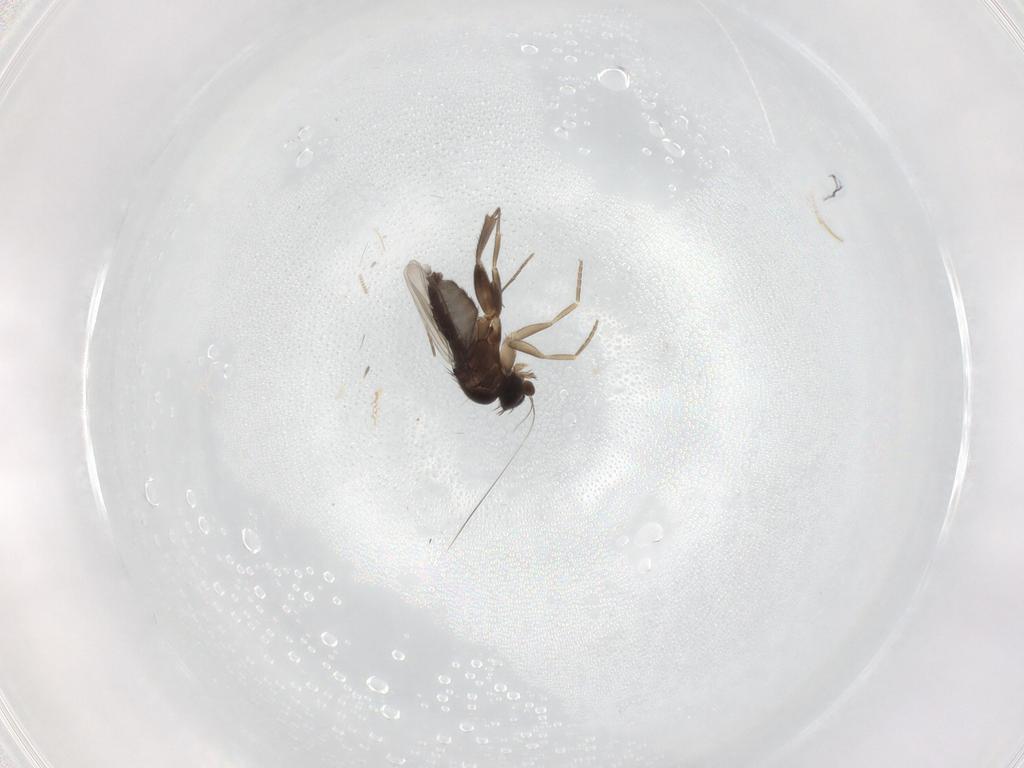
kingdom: Animalia
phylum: Arthropoda
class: Insecta
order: Diptera
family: Phoridae
